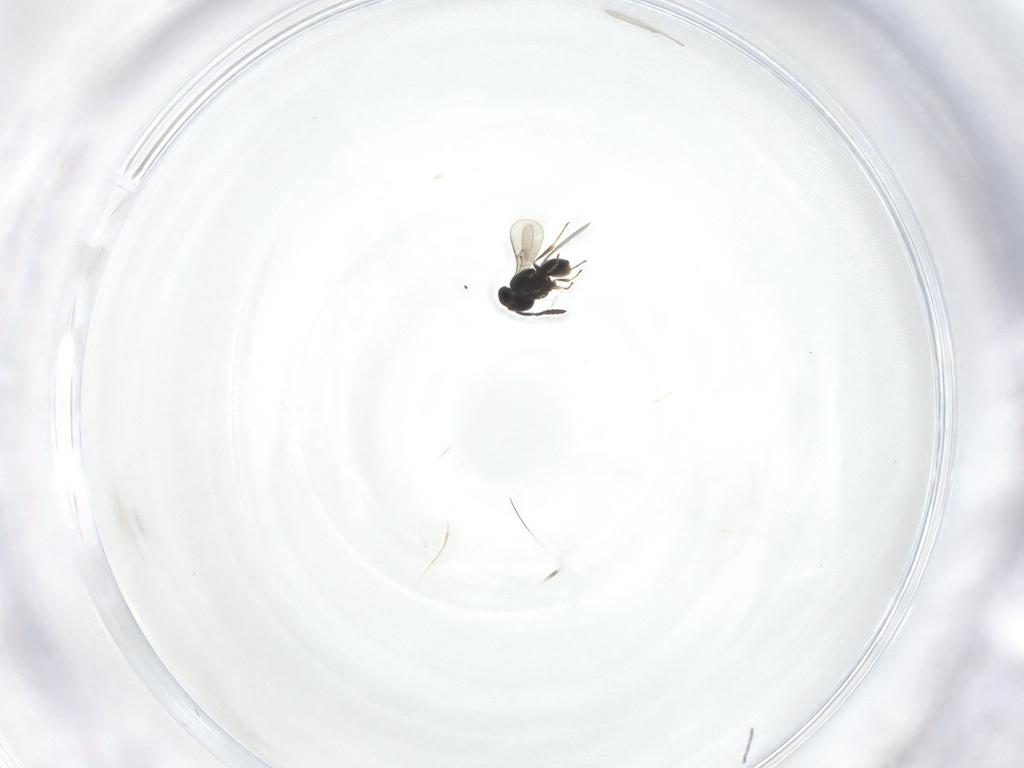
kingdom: Animalia
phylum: Arthropoda
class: Insecta
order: Hymenoptera
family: Scelionidae
